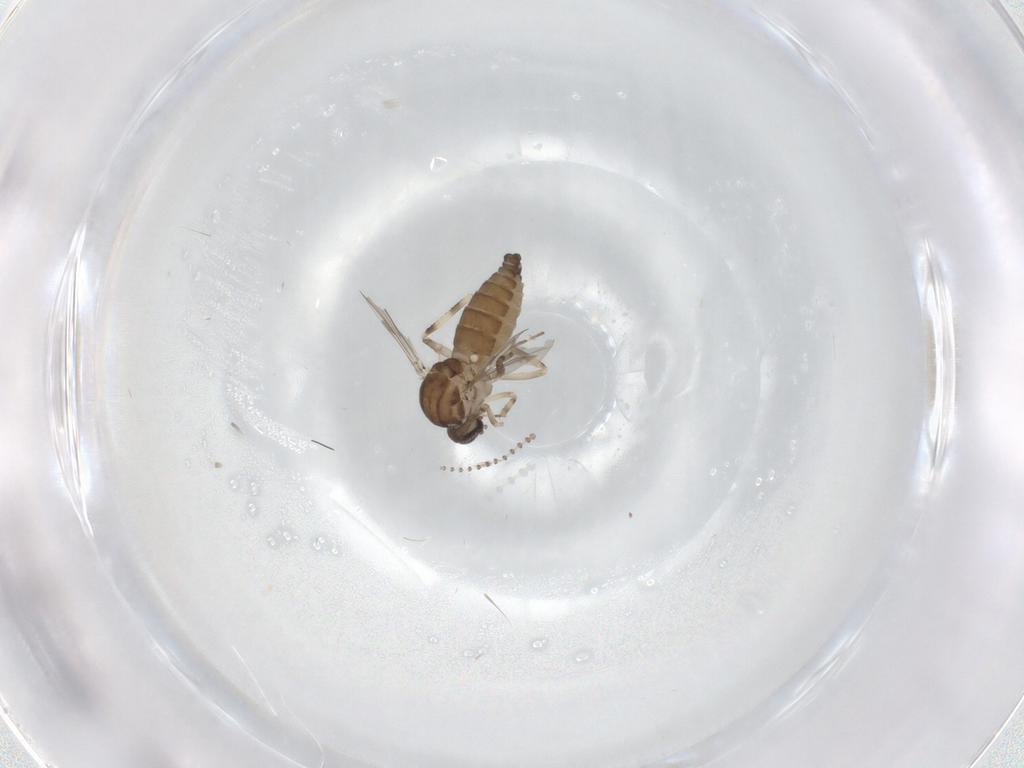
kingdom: Animalia
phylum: Arthropoda
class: Insecta
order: Diptera
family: Ceratopogonidae
